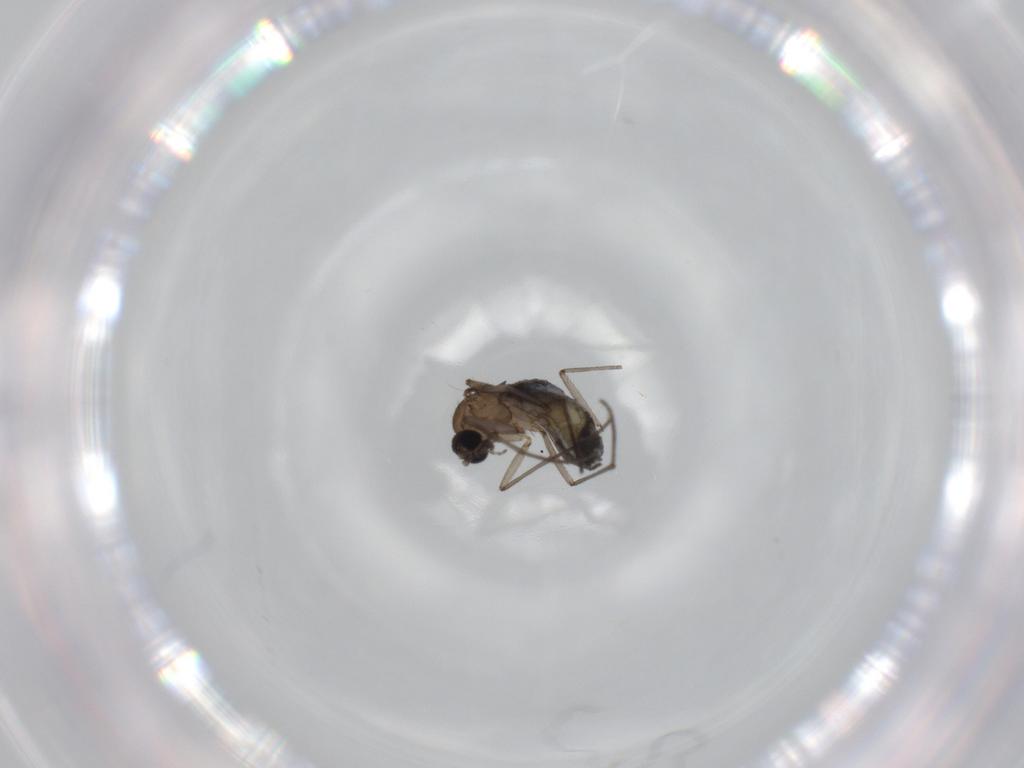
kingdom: Animalia
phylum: Arthropoda
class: Insecta
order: Diptera
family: Sciaridae
